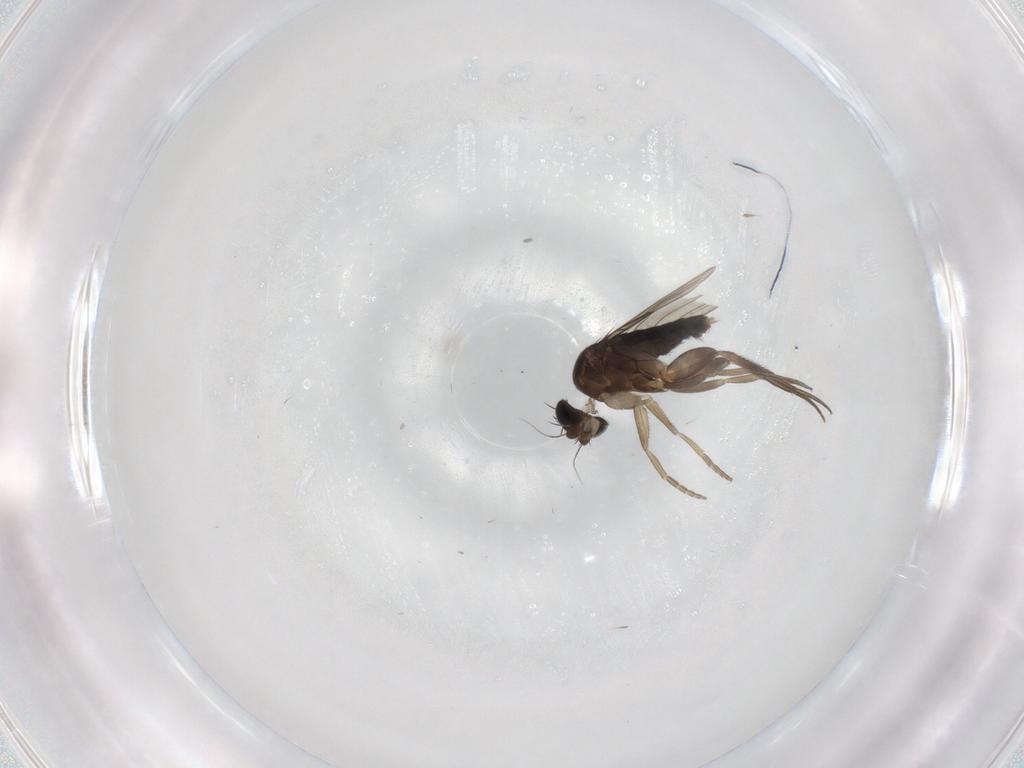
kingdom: Animalia
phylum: Arthropoda
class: Insecta
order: Diptera
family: Phoridae
